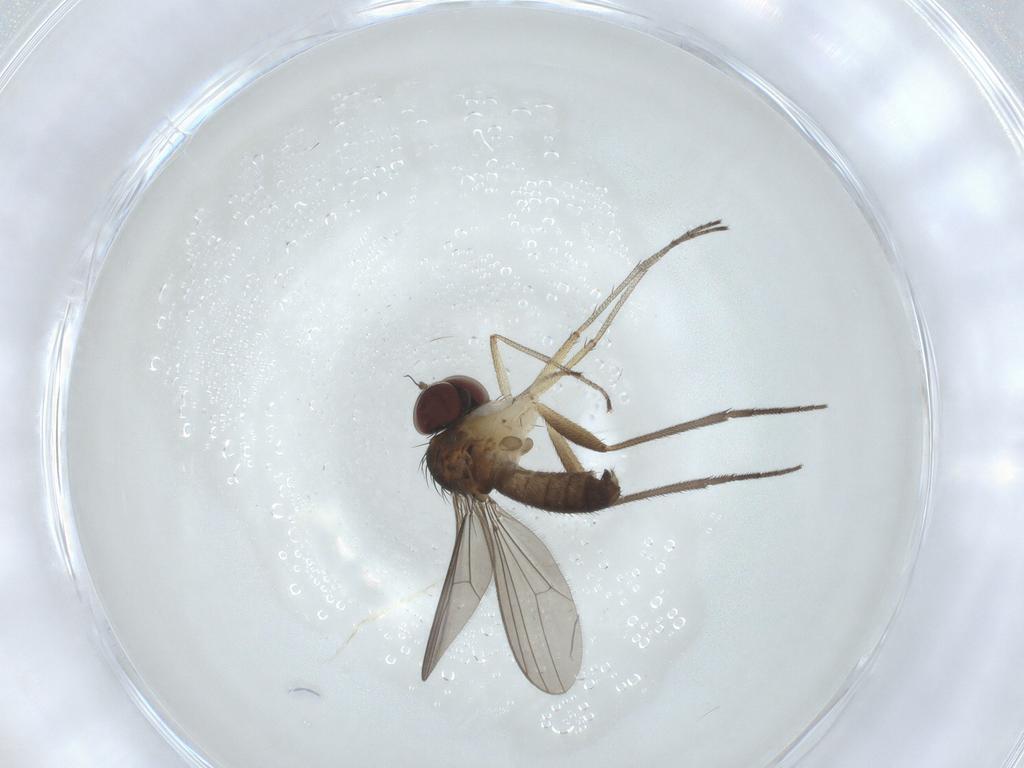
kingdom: Animalia
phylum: Arthropoda
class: Insecta
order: Diptera
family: Dolichopodidae
